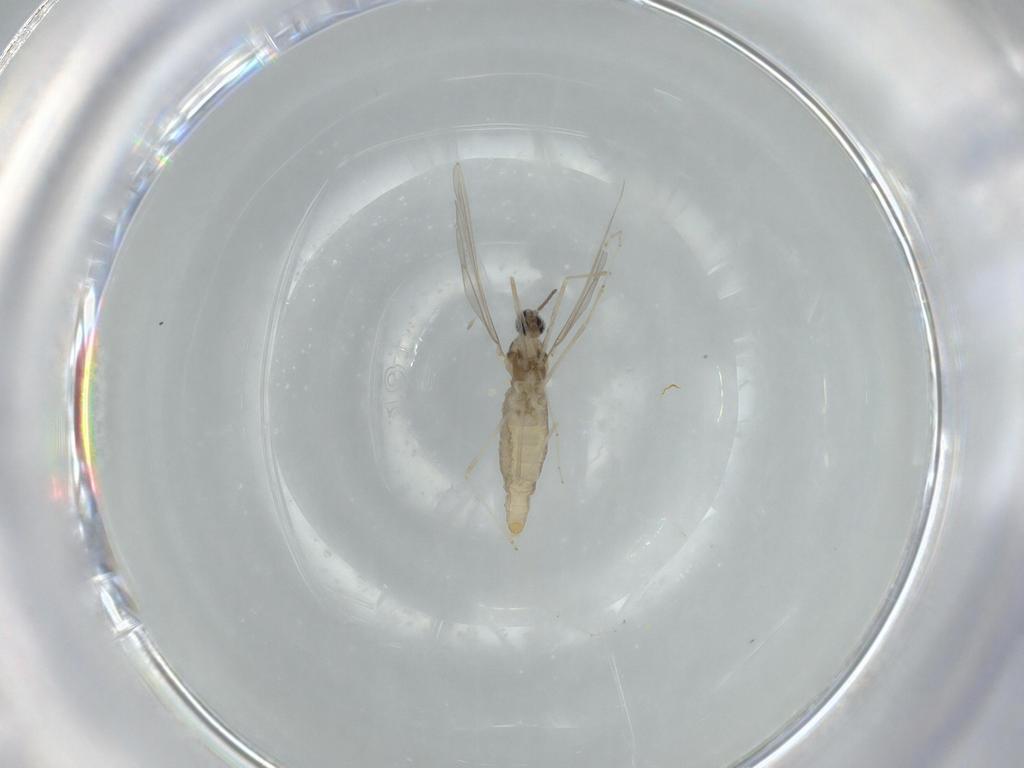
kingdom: Animalia
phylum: Arthropoda
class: Insecta
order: Diptera
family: Cecidomyiidae
